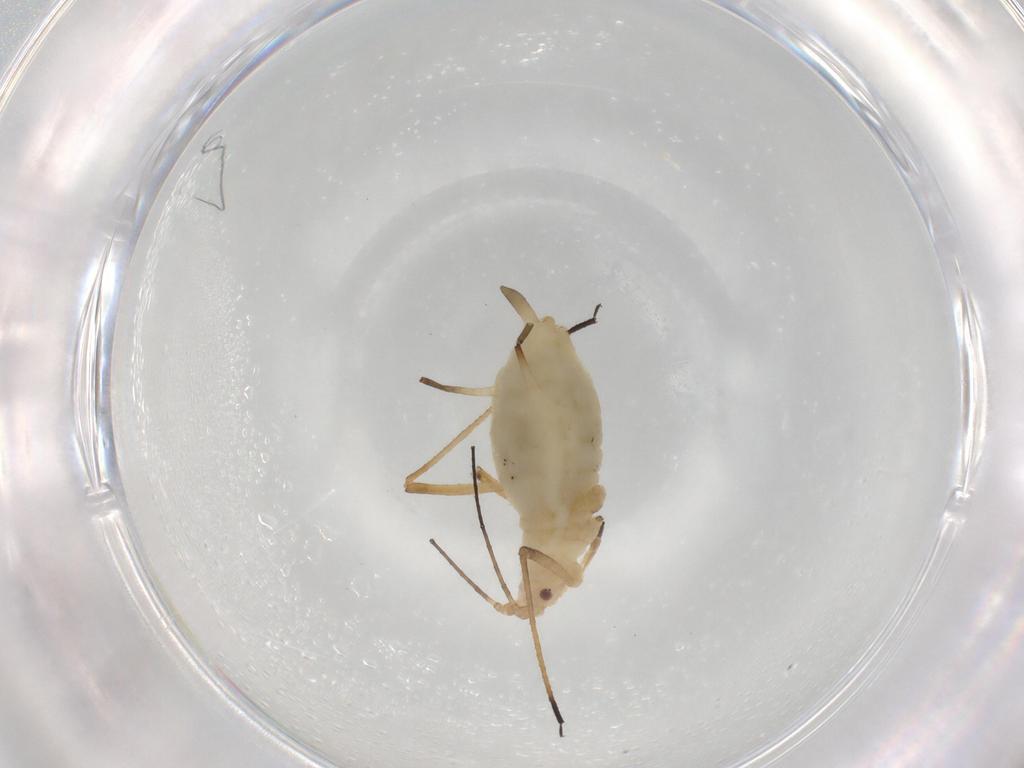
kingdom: Animalia
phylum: Arthropoda
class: Insecta
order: Hemiptera
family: Aphididae
